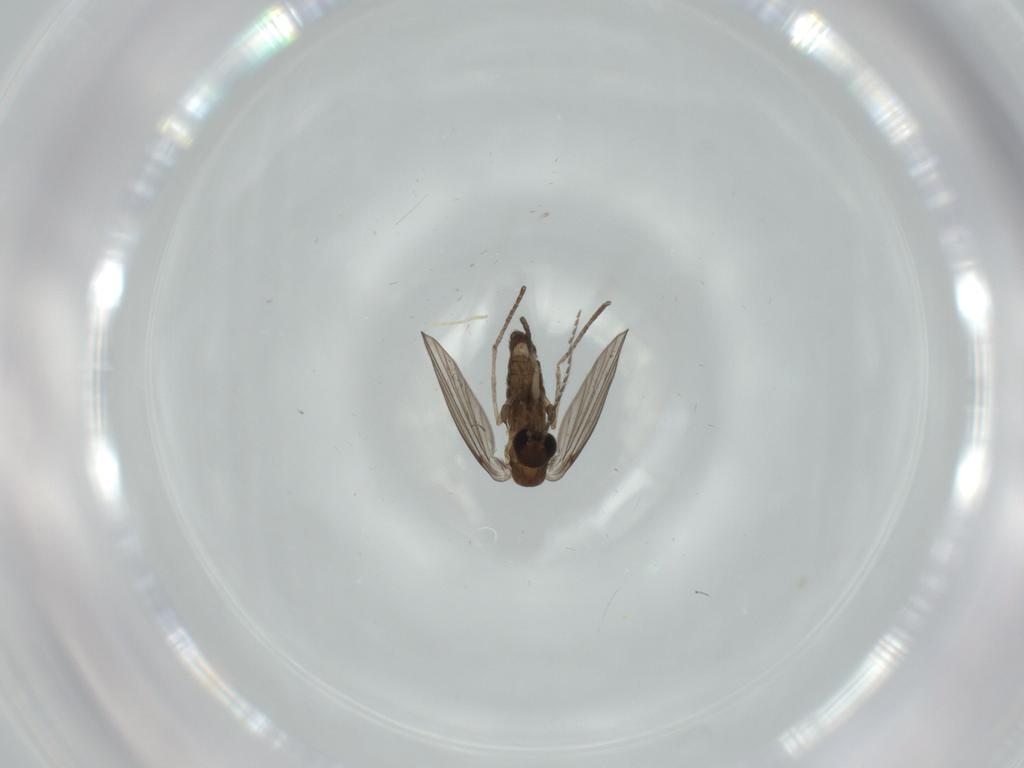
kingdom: Animalia
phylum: Arthropoda
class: Insecta
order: Diptera
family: Psychodidae
